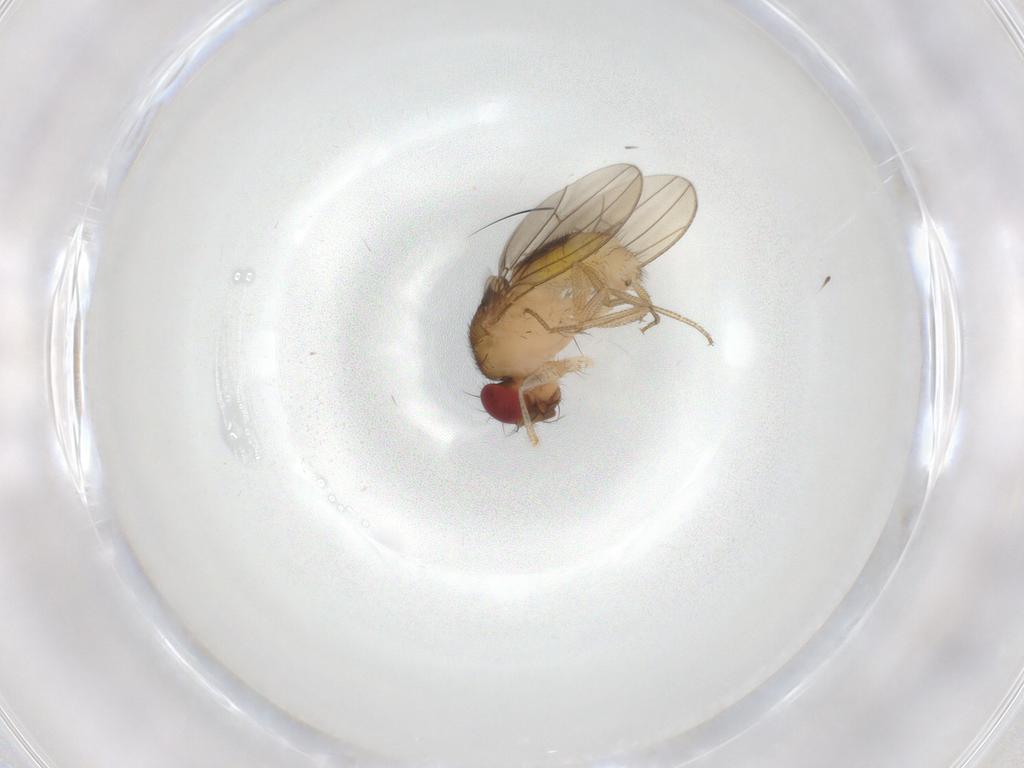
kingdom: Animalia
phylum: Arthropoda
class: Insecta
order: Diptera
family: Drosophilidae
